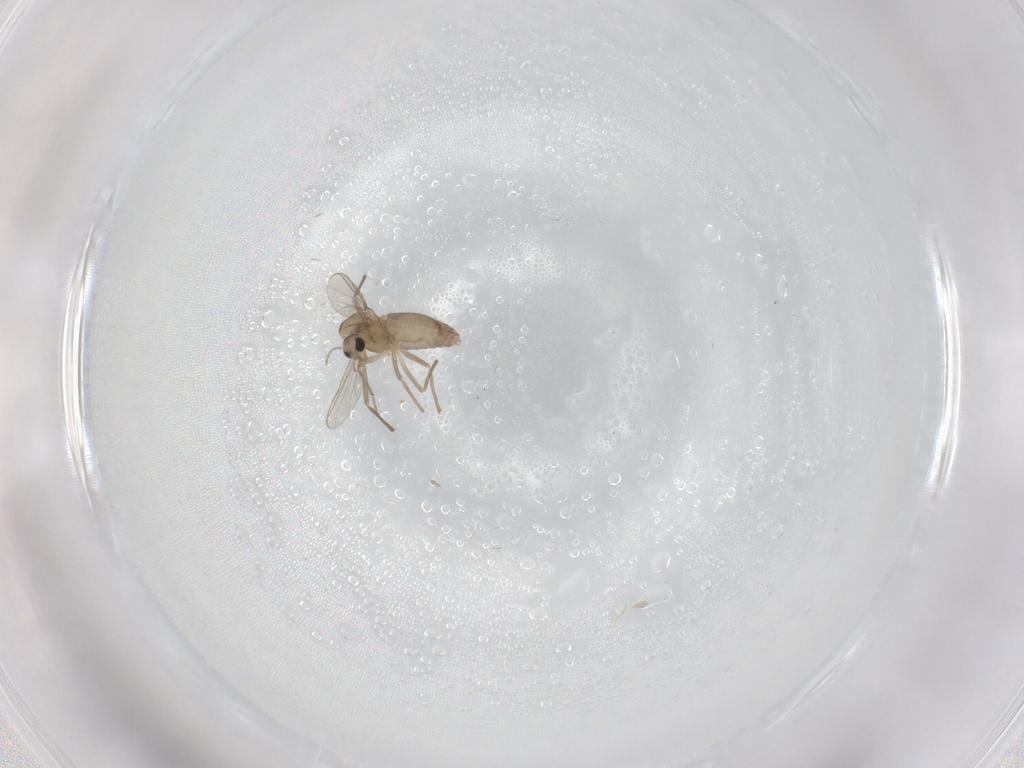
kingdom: Animalia
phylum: Arthropoda
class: Insecta
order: Diptera
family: Chironomidae
